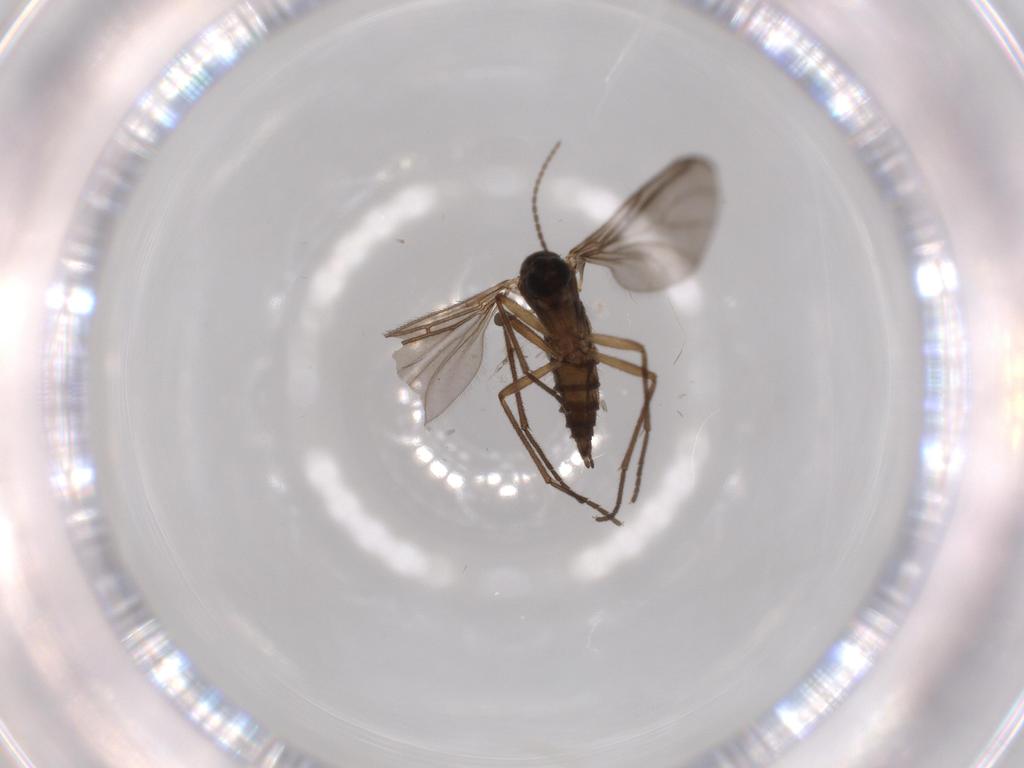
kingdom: Animalia
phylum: Arthropoda
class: Insecta
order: Diptera
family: Sciaridae
